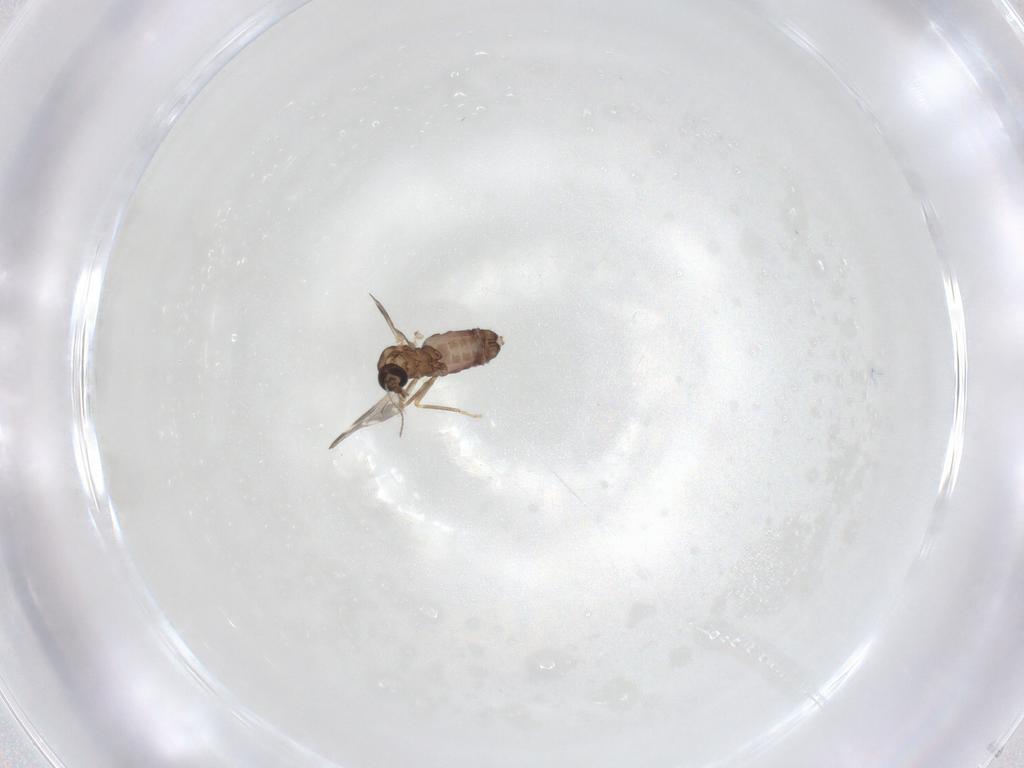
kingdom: Animalia
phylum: Arthropoda
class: Insecta
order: Diptera
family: Ceratopogonidae
